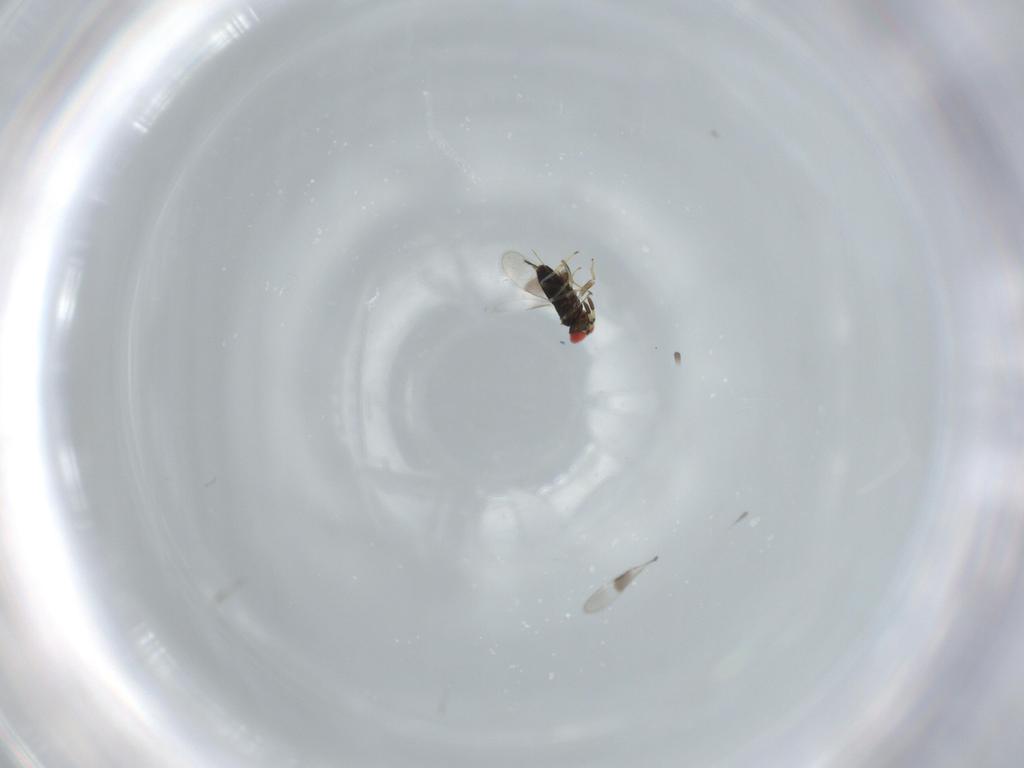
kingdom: Animalia
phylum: Arthropoda
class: Insecta
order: Hymenoptera
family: Azotidae
